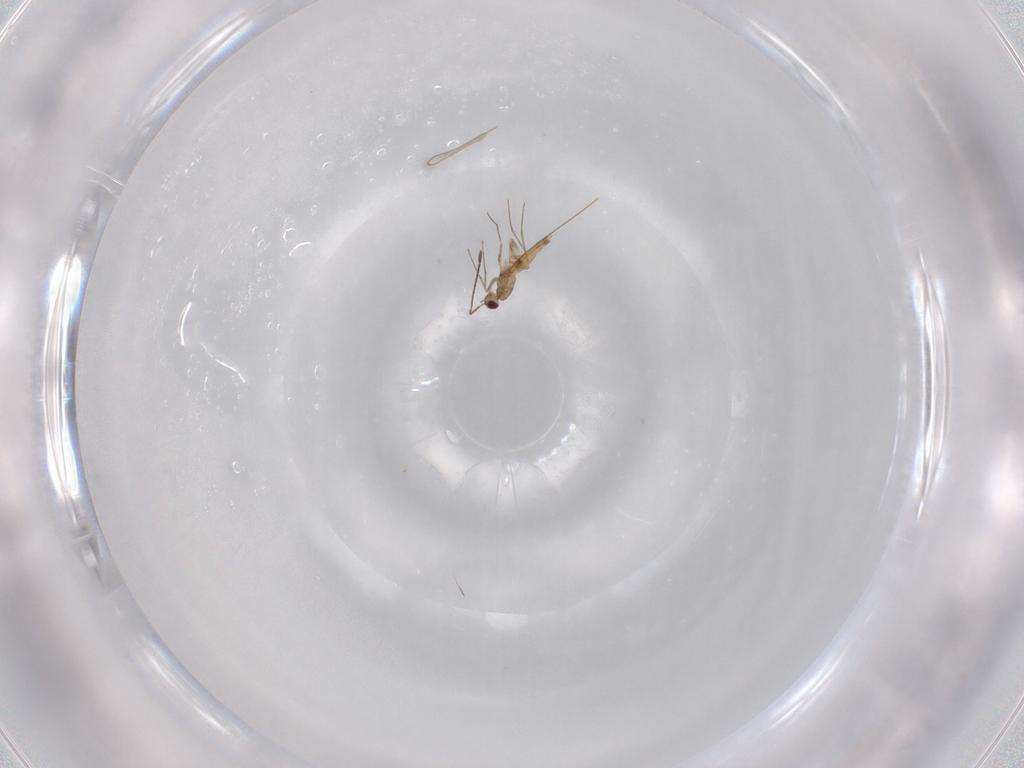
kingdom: Animalia
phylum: Arthropoda
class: Insecta
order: Hymenoptera
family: Mymaridae
